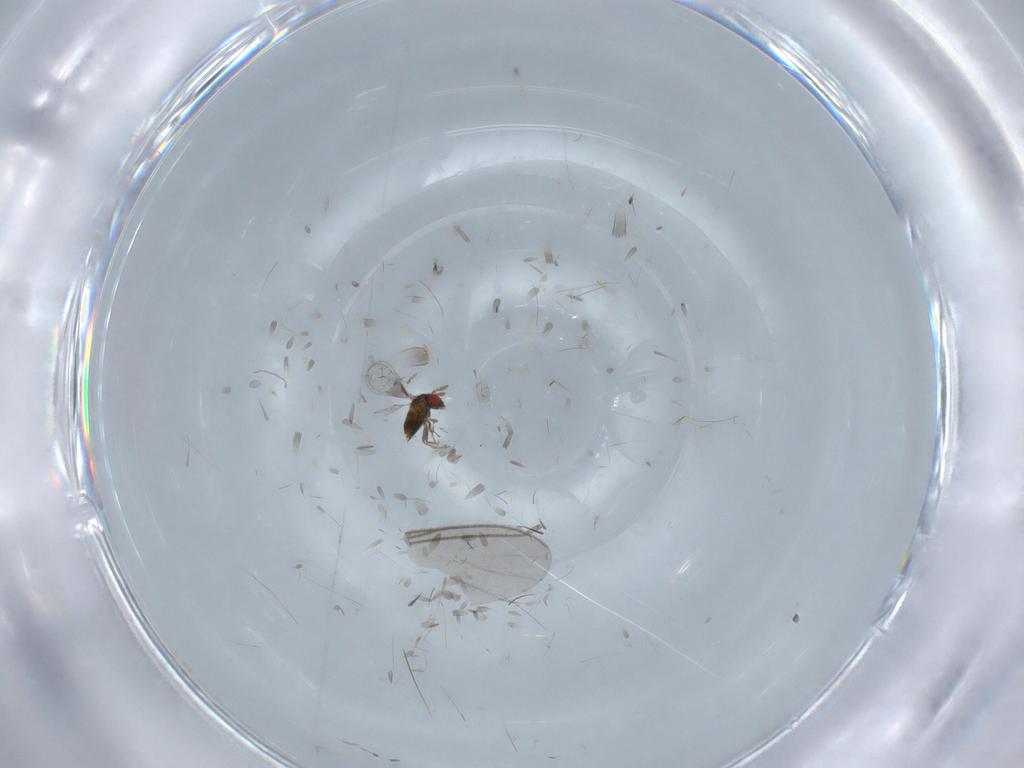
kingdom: Animalia
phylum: Arthropoda
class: Insecta
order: Hymenoptera
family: Trichogrammatidae
